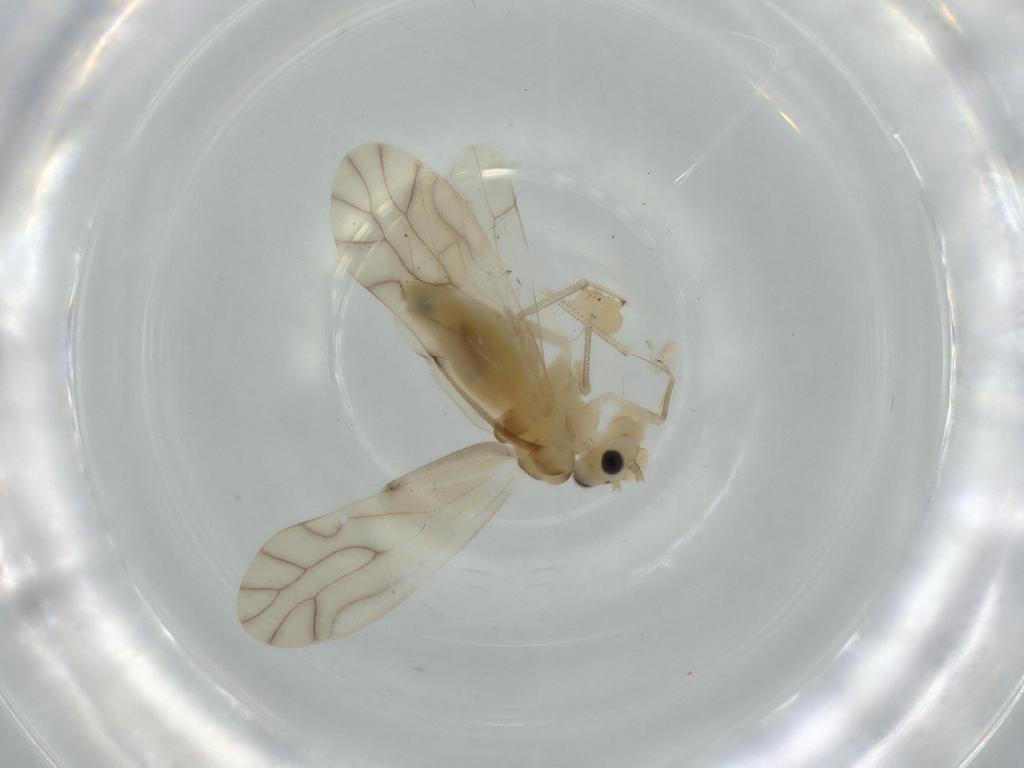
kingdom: Animalia
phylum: Arthropoda
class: Insecta
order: Psocodea
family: Caeciliusidae
